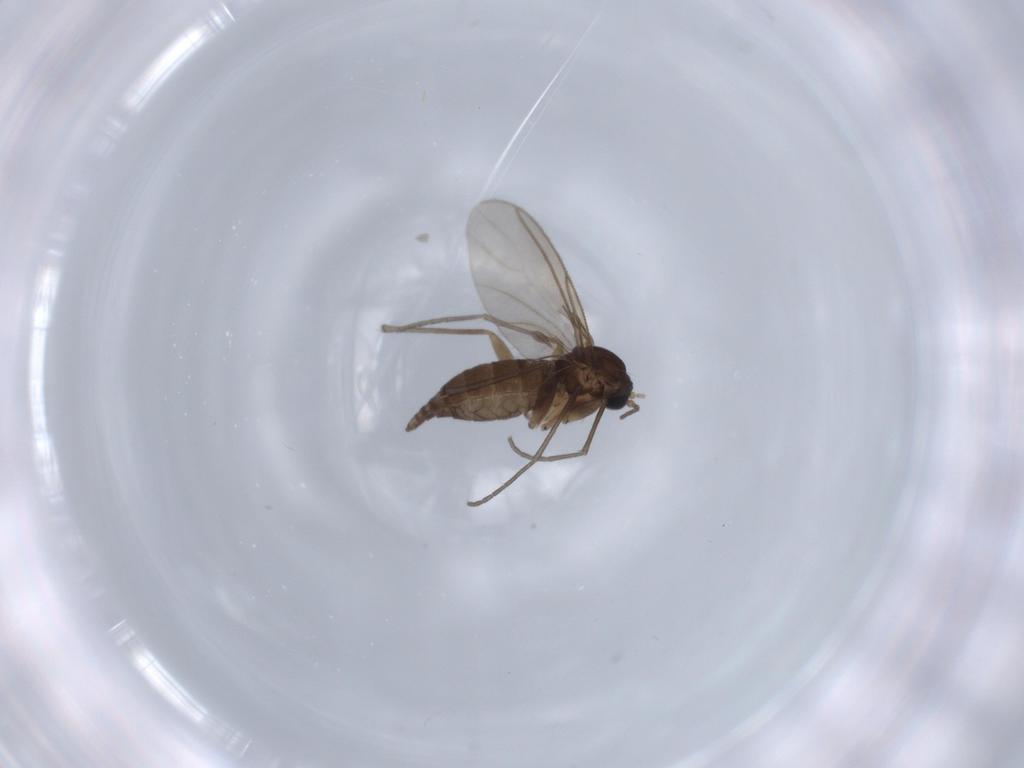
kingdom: Animalia
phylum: Arthropoda
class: Insecta
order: Diptera
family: Sciaridae
